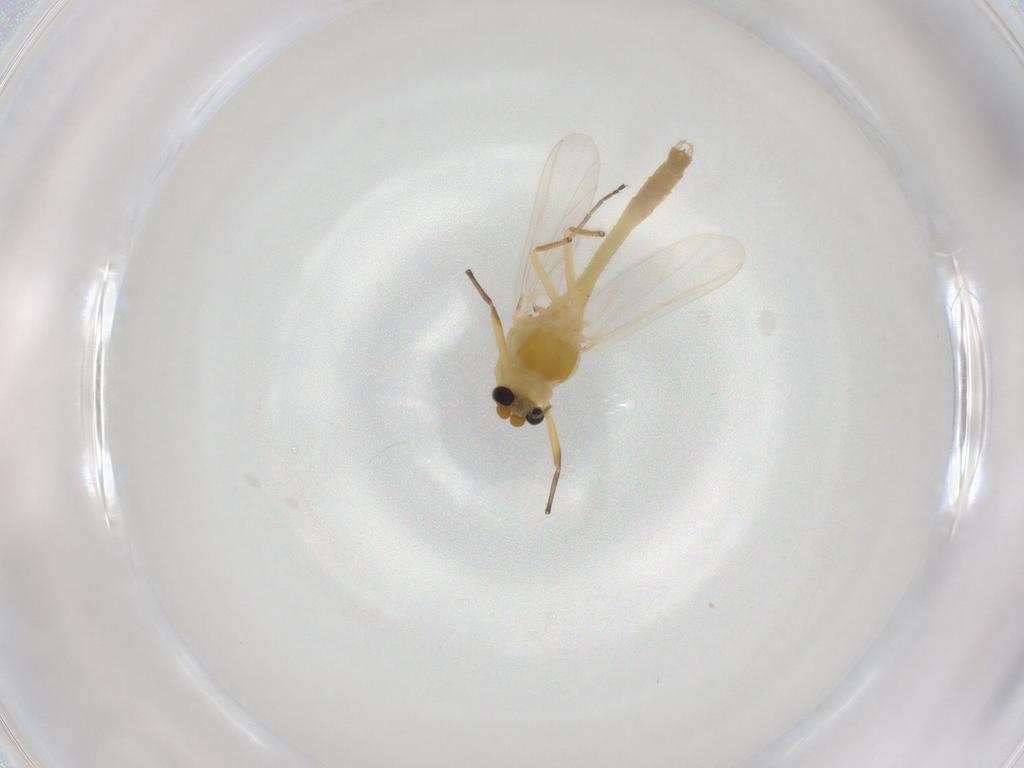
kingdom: Animalia
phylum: Arthropoda
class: Insecta
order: Diptera
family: Chironomidae
